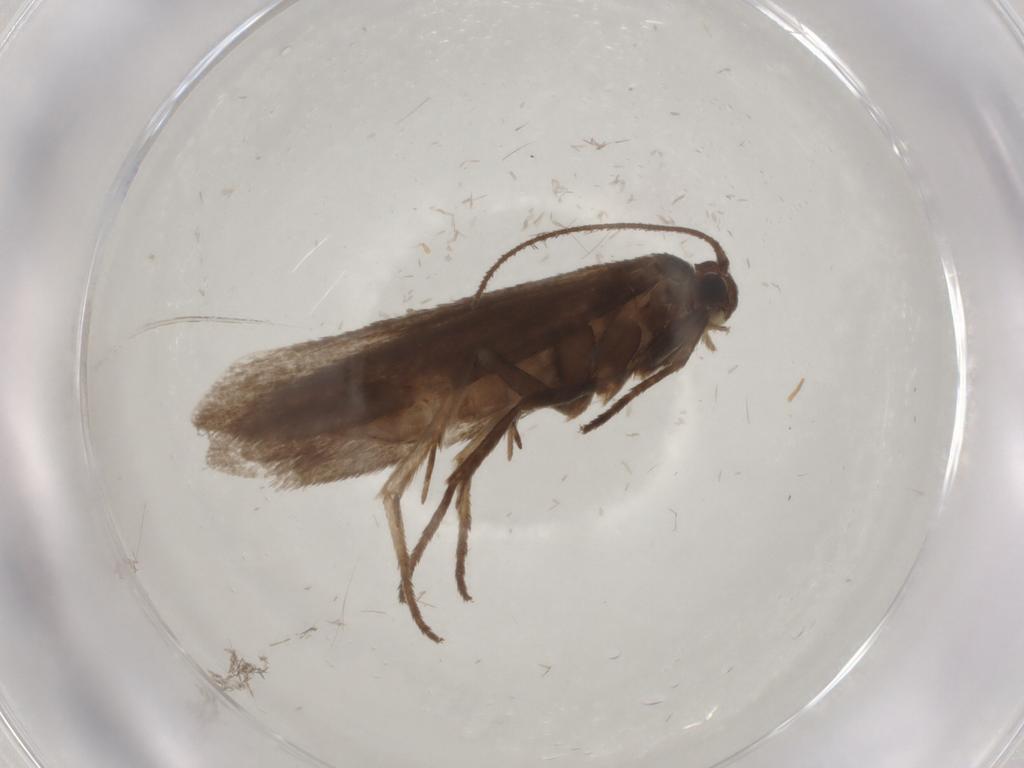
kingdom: Animalia
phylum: Arthropoda
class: Insecta
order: Lepidoptera
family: Limacodidae
